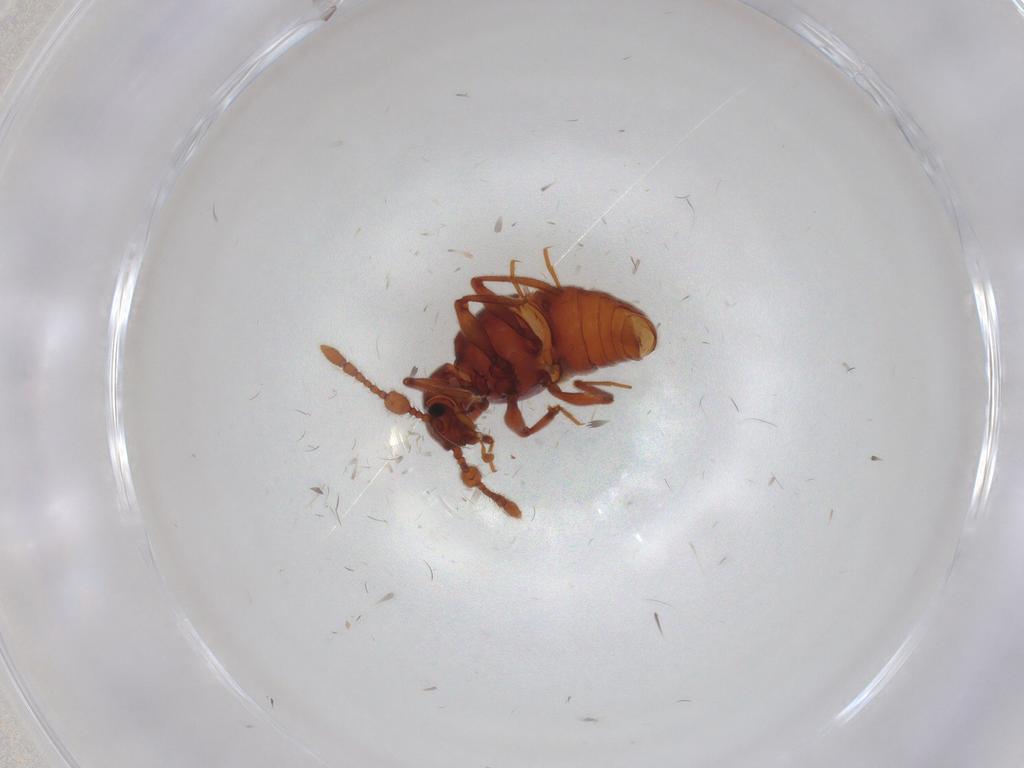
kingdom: Animalia
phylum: Arthropoda
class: Insecta
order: Coleoptera
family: Staphylinidae
